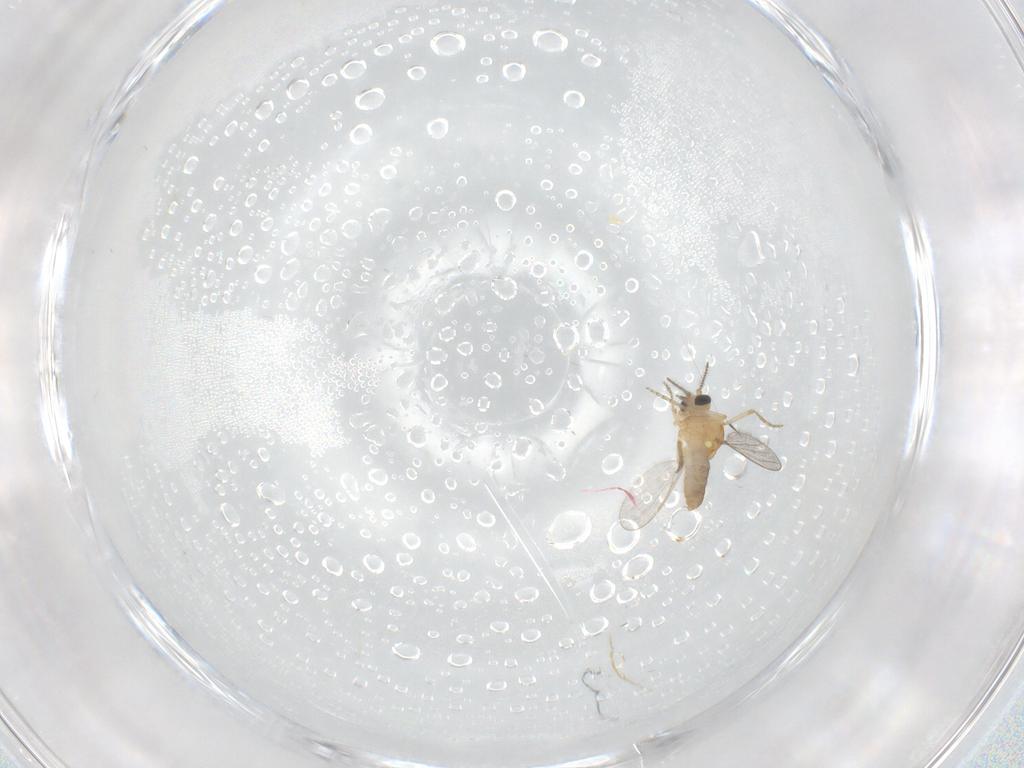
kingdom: Animalia
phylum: Arthropoda
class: Insecta
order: Diptera
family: Ceratopogonidae
